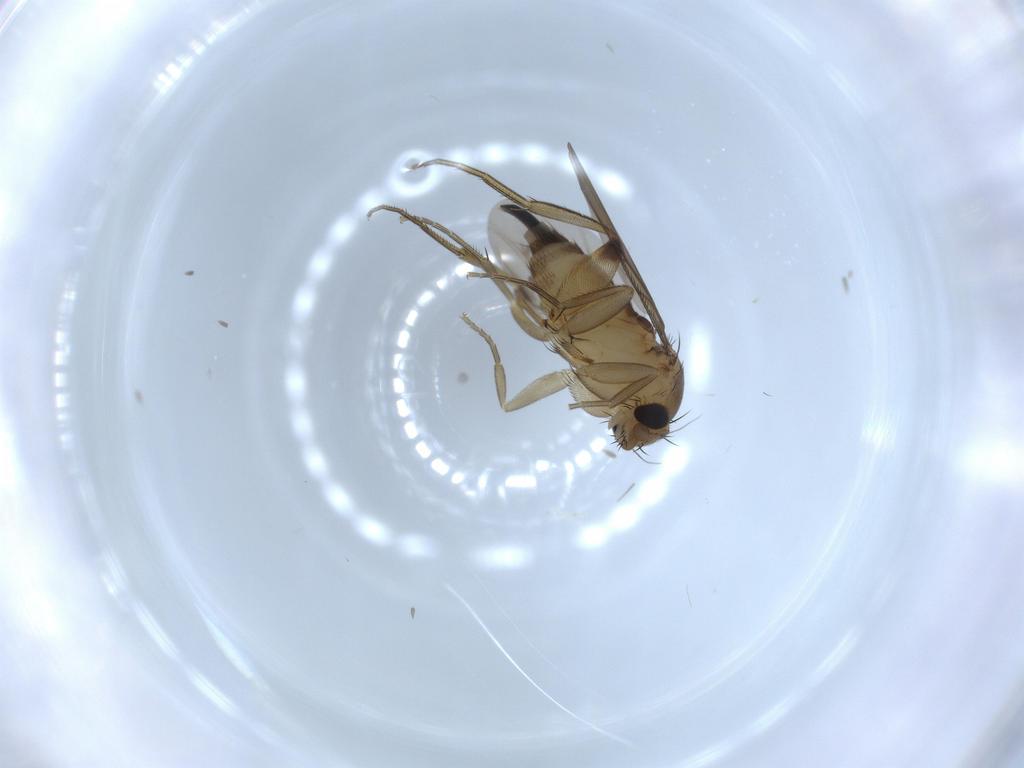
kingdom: Animalia
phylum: Arthropoda
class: Insecta
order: Diptera
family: Phoridae
